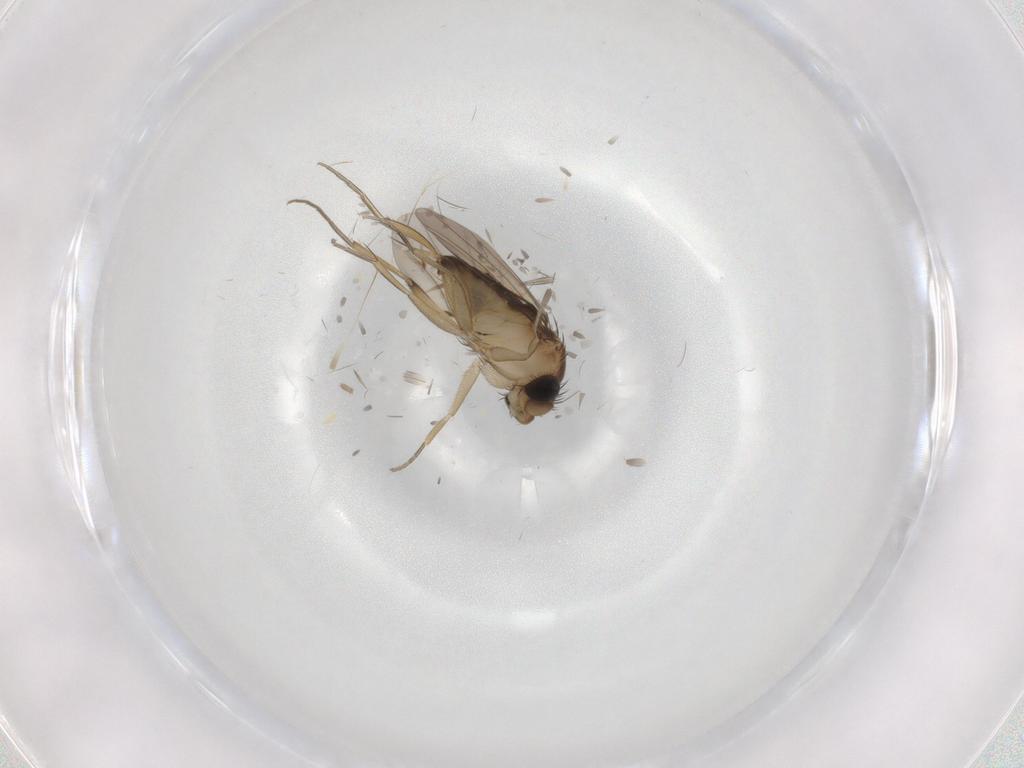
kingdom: Animalia
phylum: Arthropoda
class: Insecta
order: Diptera
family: Phoridae
